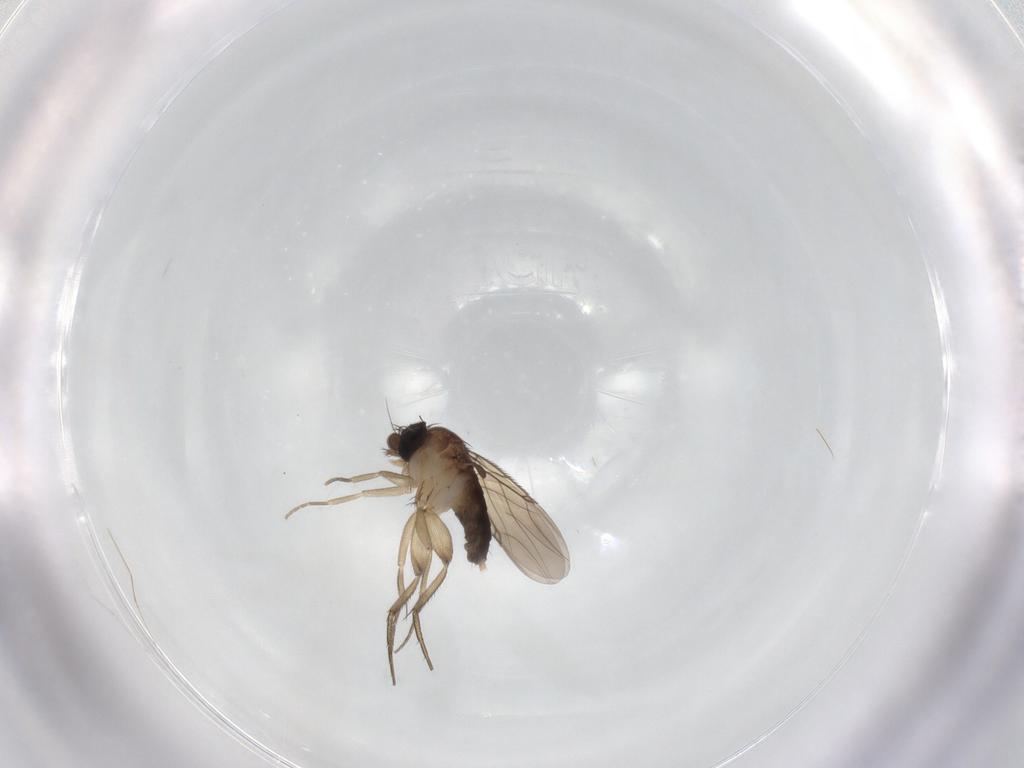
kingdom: Animalia
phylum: Arthropoda
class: Insecta
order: Diptera
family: Phoridae
